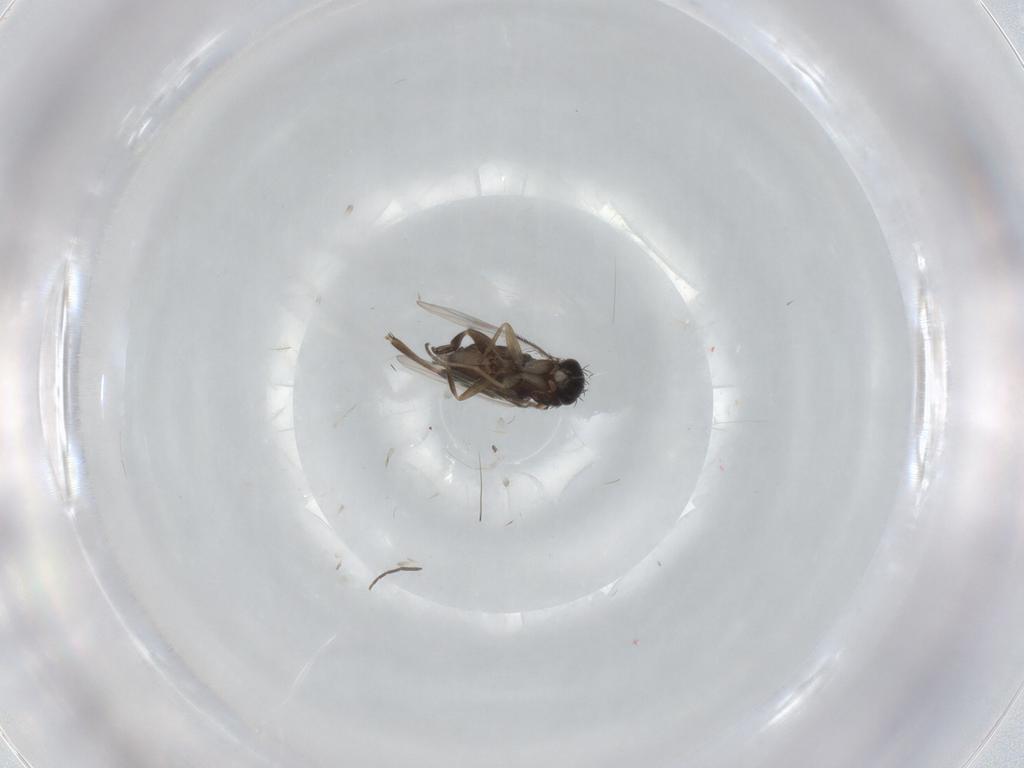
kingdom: Animalia
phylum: Arthropoda
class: Insecta
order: Diptera
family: Phoridae
